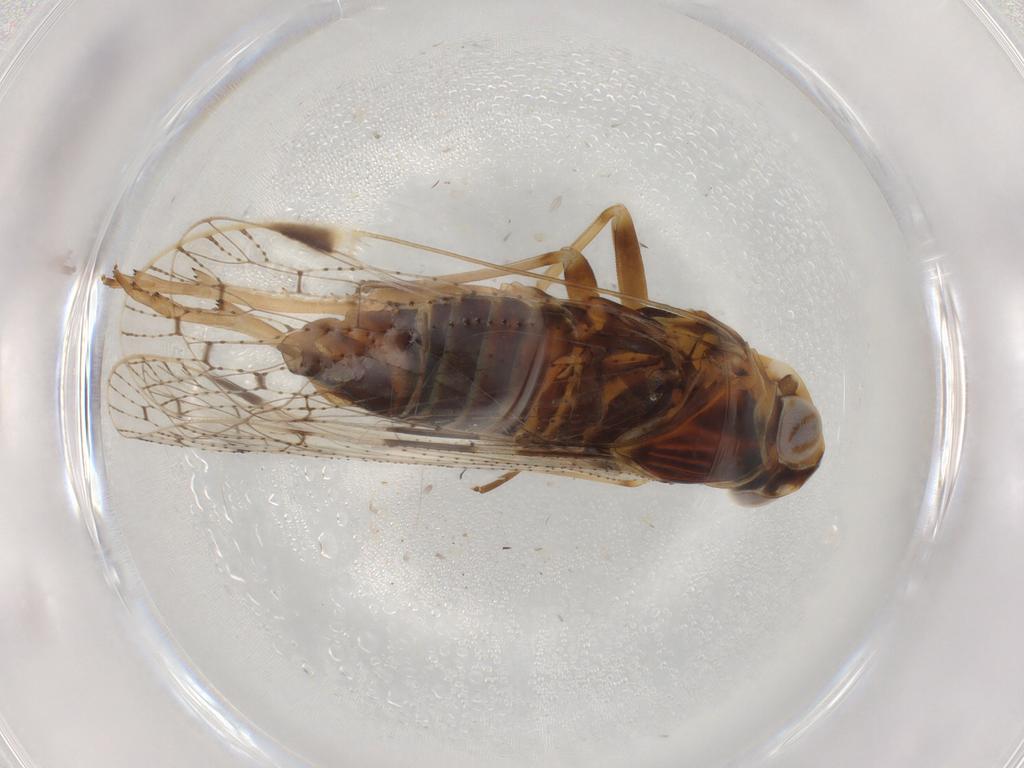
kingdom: Animalia
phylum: Arthropoda
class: Insecta
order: Hemiptera
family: Cixiidae
